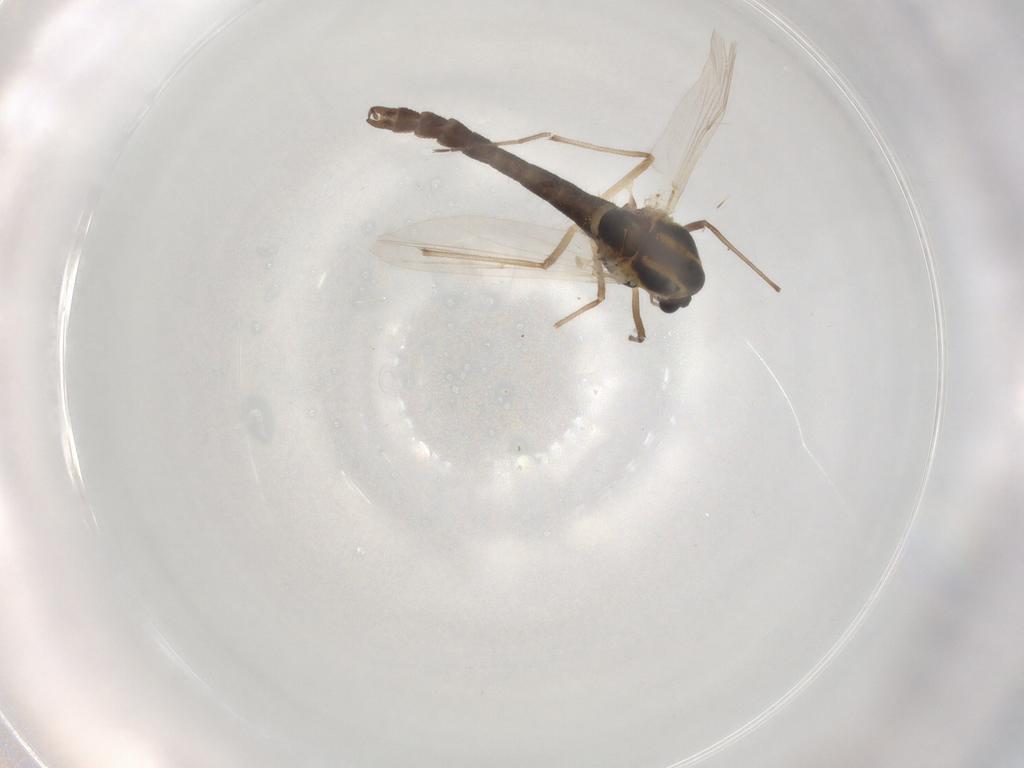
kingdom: Animalia
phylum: Arthropoda
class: Insecta
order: Diptera
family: Chironomidae
